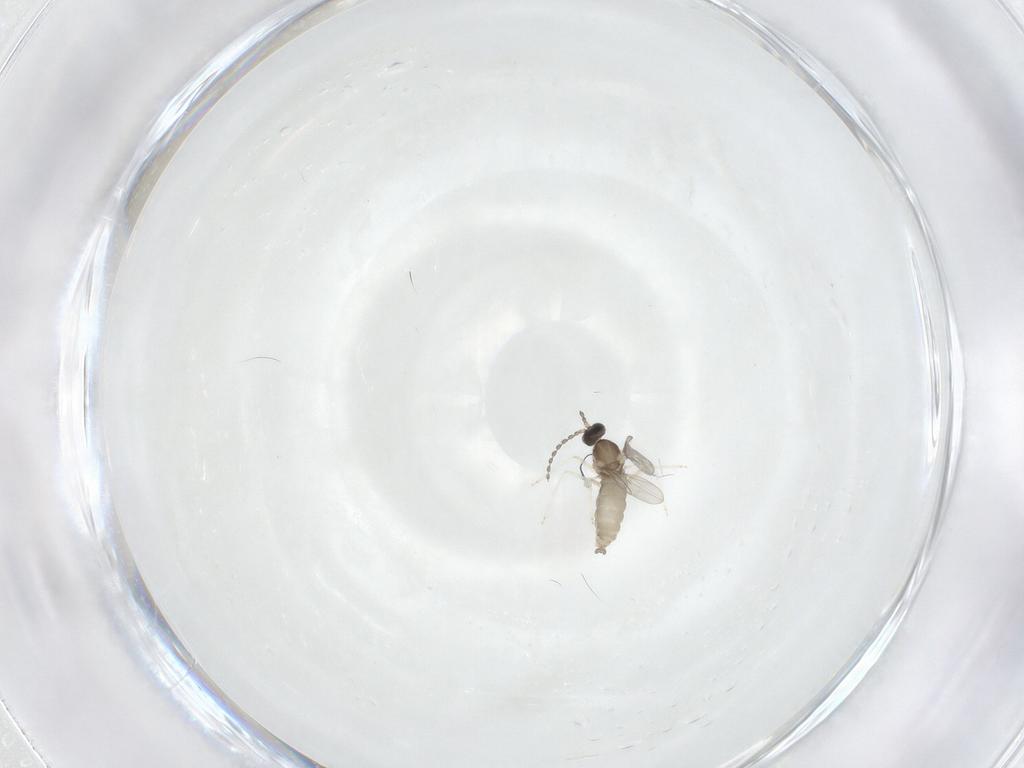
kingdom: Animalia
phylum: Arthropoda
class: Insecta
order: Diptera
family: Cecidomyiidae
